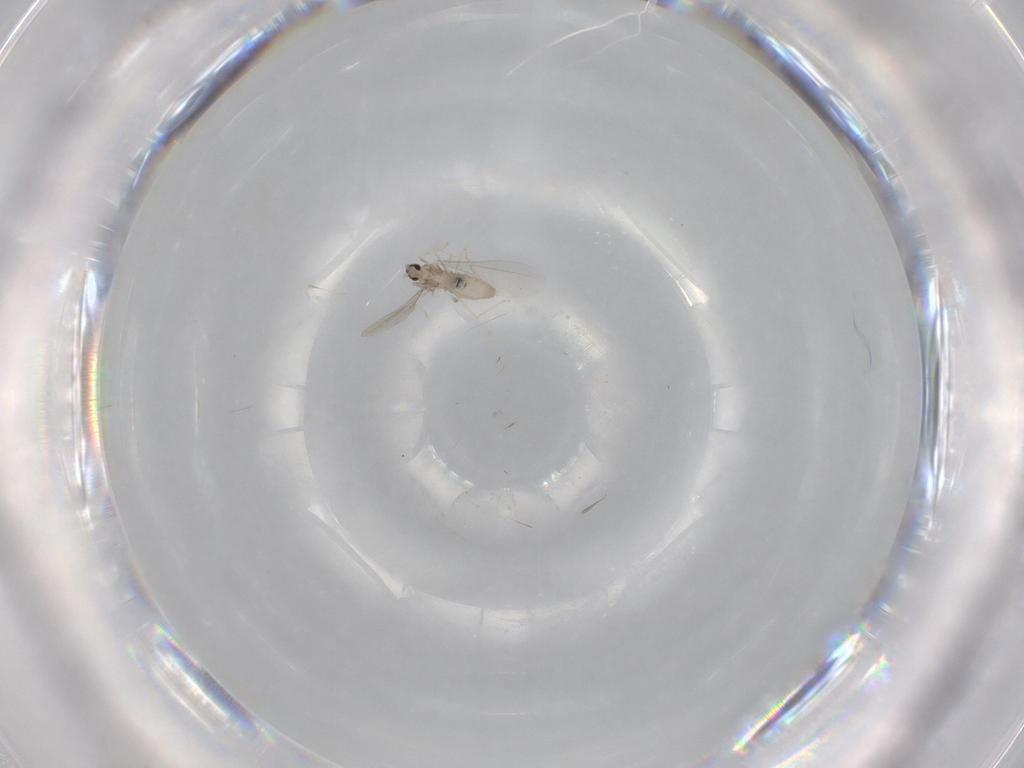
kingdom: Animalia
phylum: Arthropoda
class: Insecta
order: Diptera
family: Cecidomyiidae
